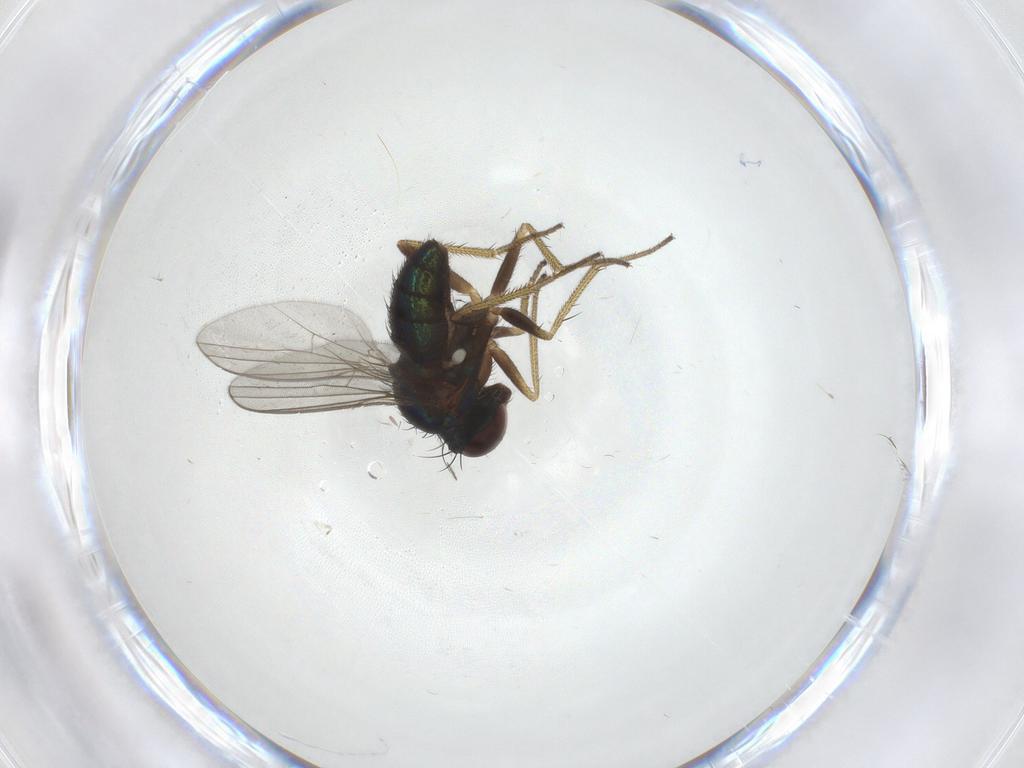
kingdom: Animalia
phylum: Arthropoda
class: Insecta
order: Diptera
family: Dolichopodidae
